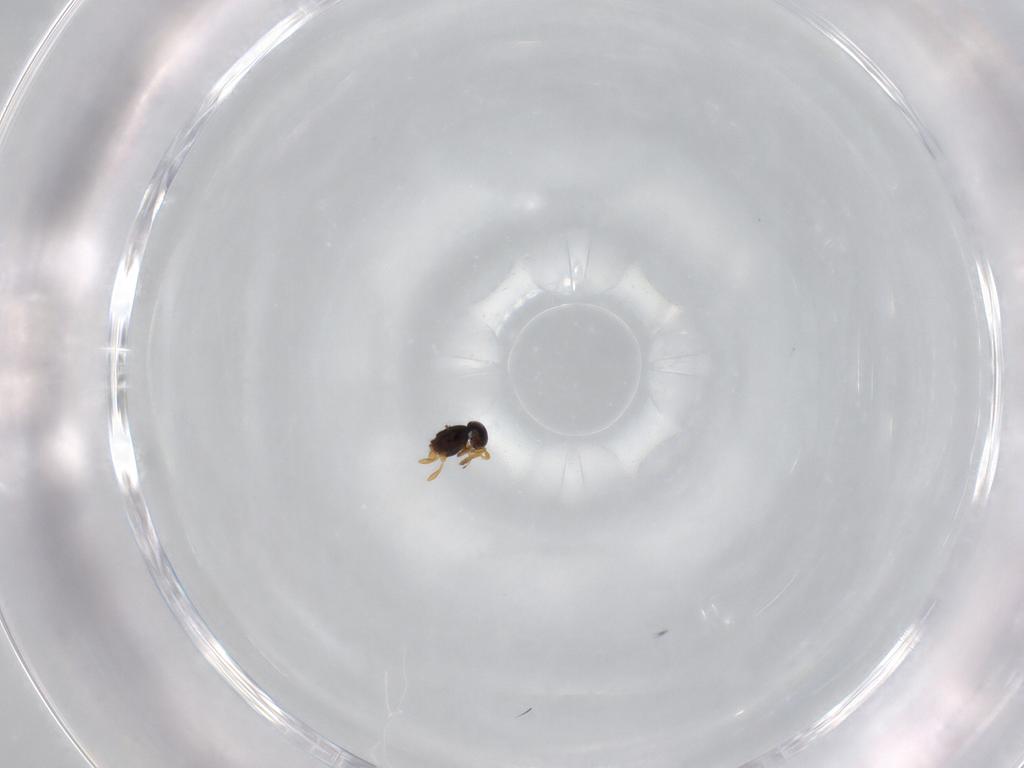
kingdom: Animalia
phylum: Arthropoda
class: Insecta
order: Hymenoptera
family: Platygastridae
